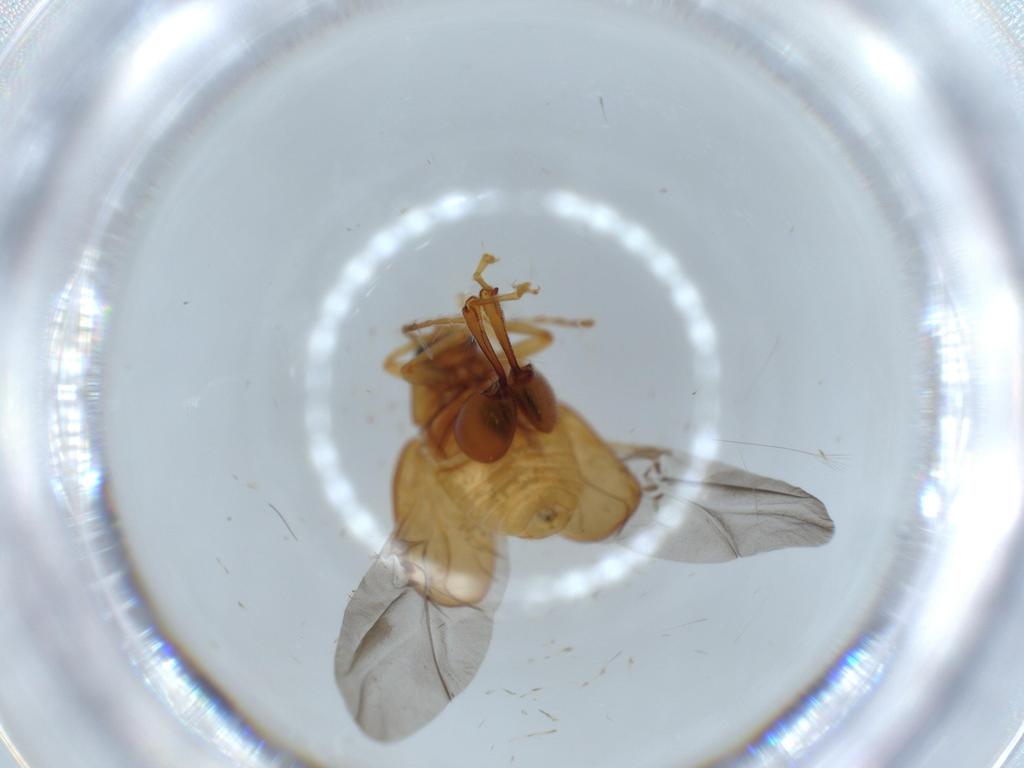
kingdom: Animalia
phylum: Arthropoda
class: Insecta
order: Coleoptera
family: Chrysomelidae
